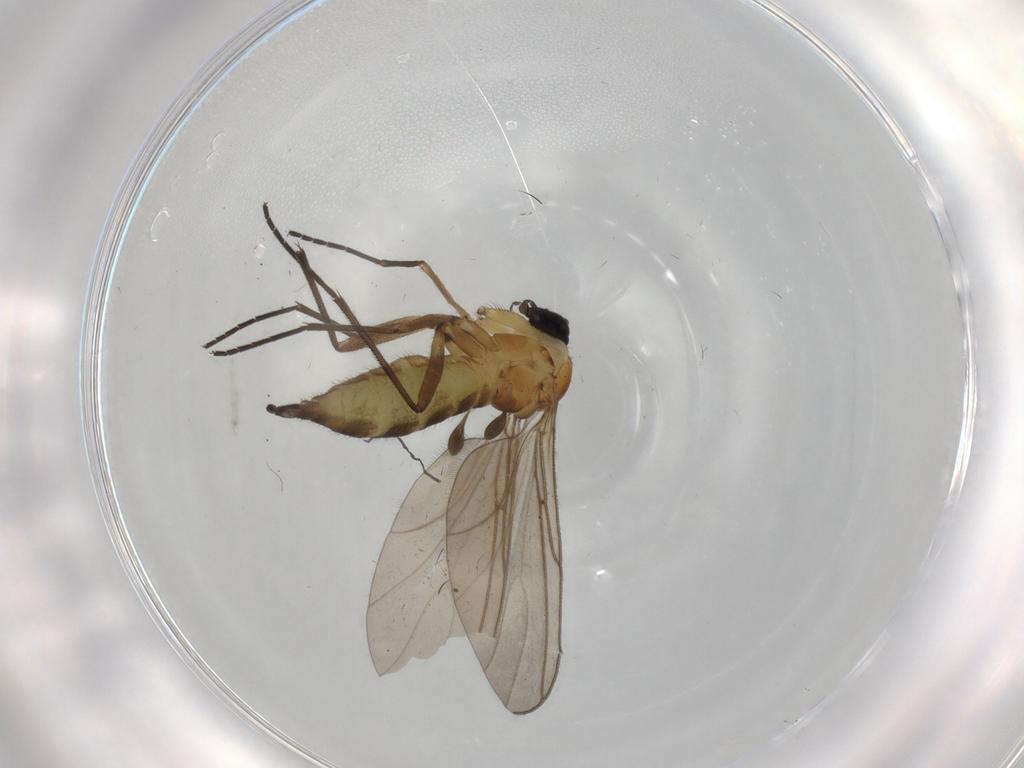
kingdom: Animalia
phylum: Arthropoda
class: Insecta
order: Diptera
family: Sciaridae
